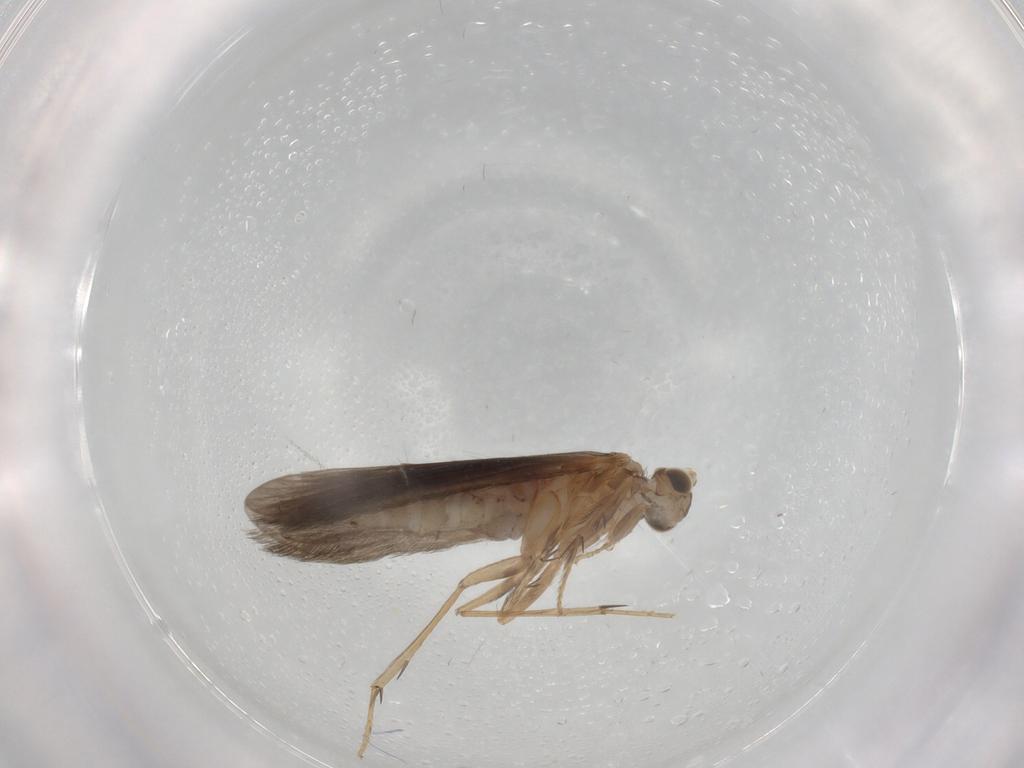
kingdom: Animalia
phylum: Arthropoda
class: Insecta
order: Trichoptera
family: Glossosomatidae
